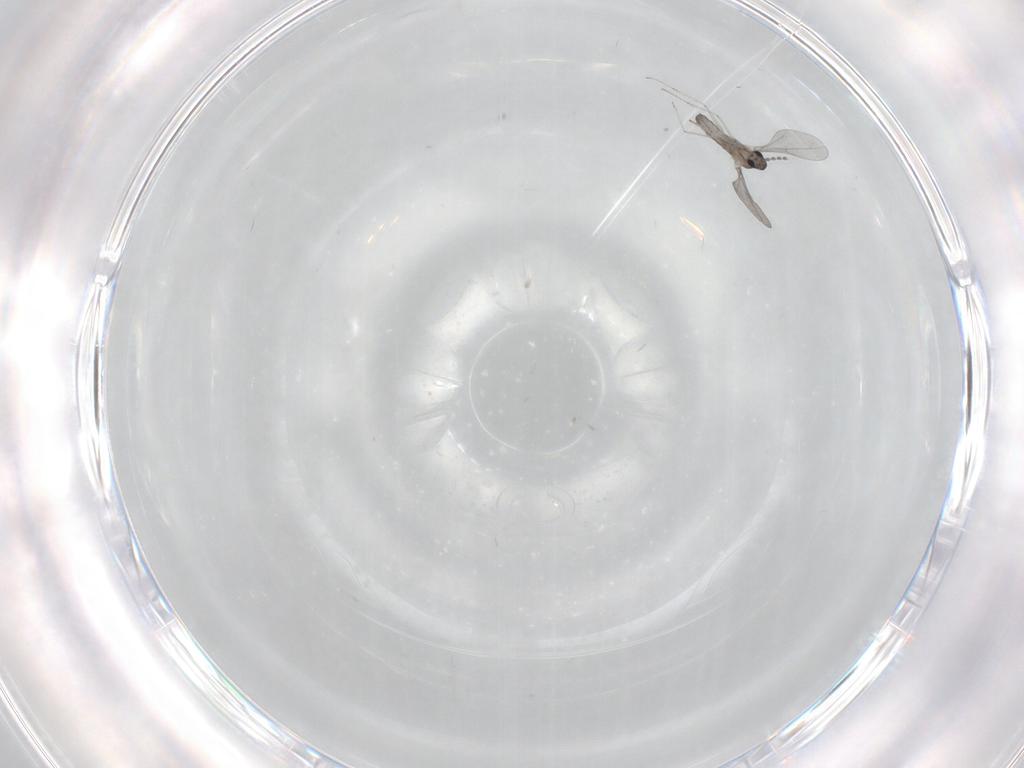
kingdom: Animalia
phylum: Arthropoda
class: Insecta
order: Diptera
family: Cecidomyiidae
